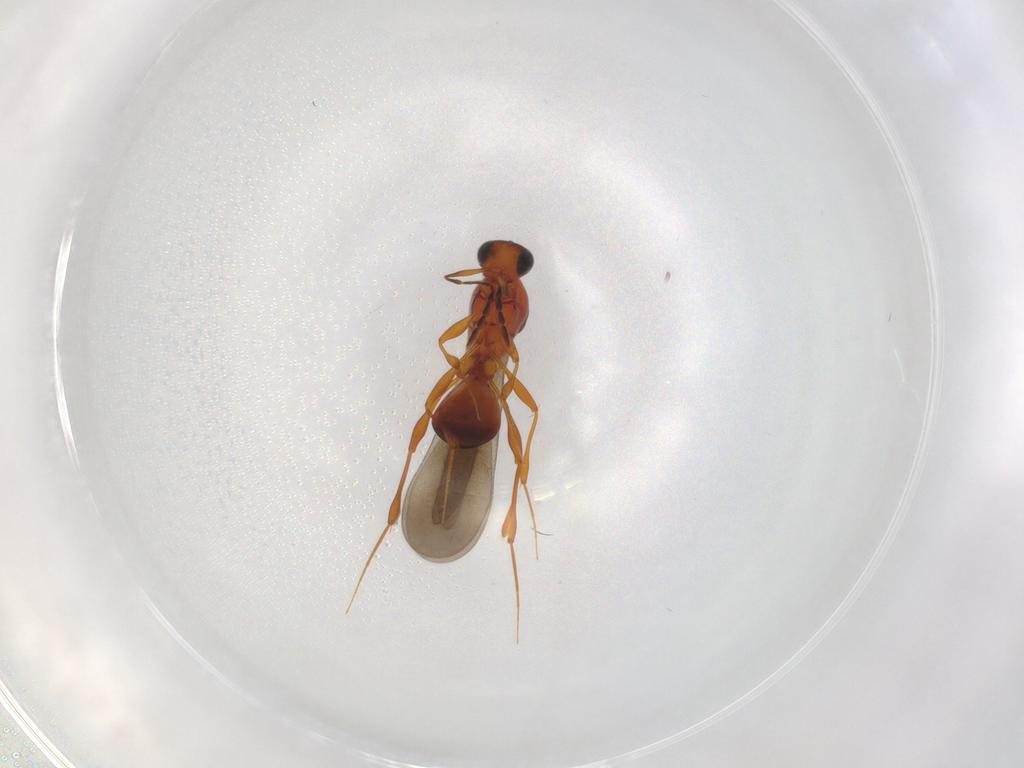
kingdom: Animalia
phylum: Arthropoda
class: Insecta
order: Hymenoptera
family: Platygastridae
